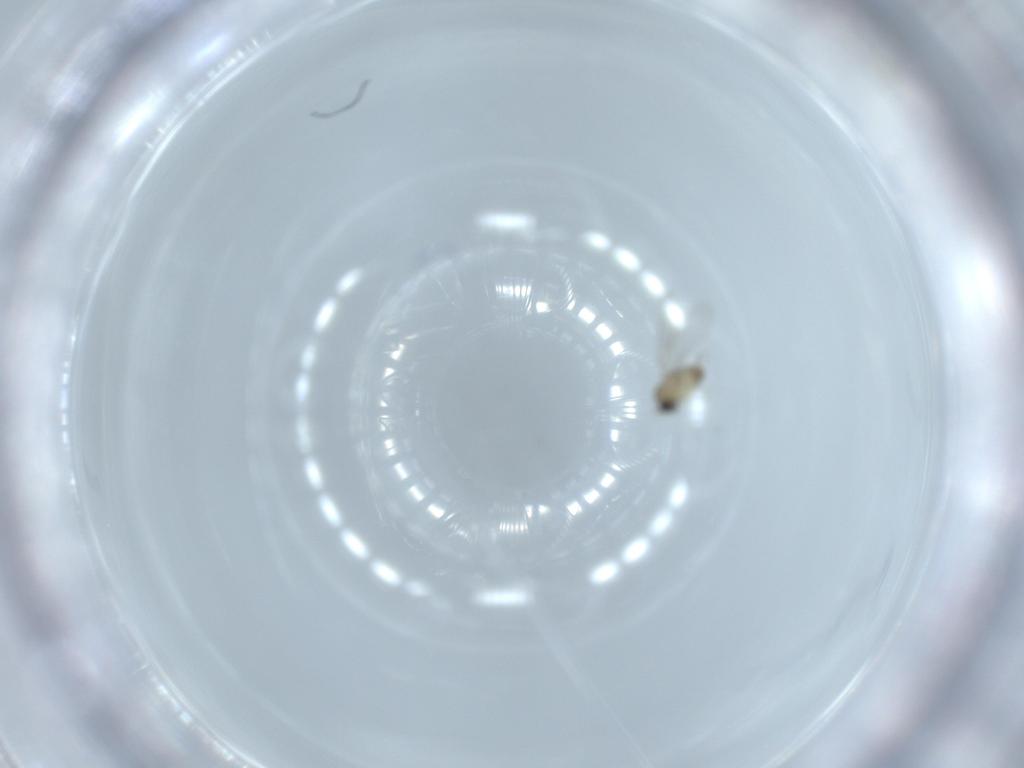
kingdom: Animalia
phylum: Arthropoda
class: Insecta
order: Diptera
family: Cecidomyiidae
